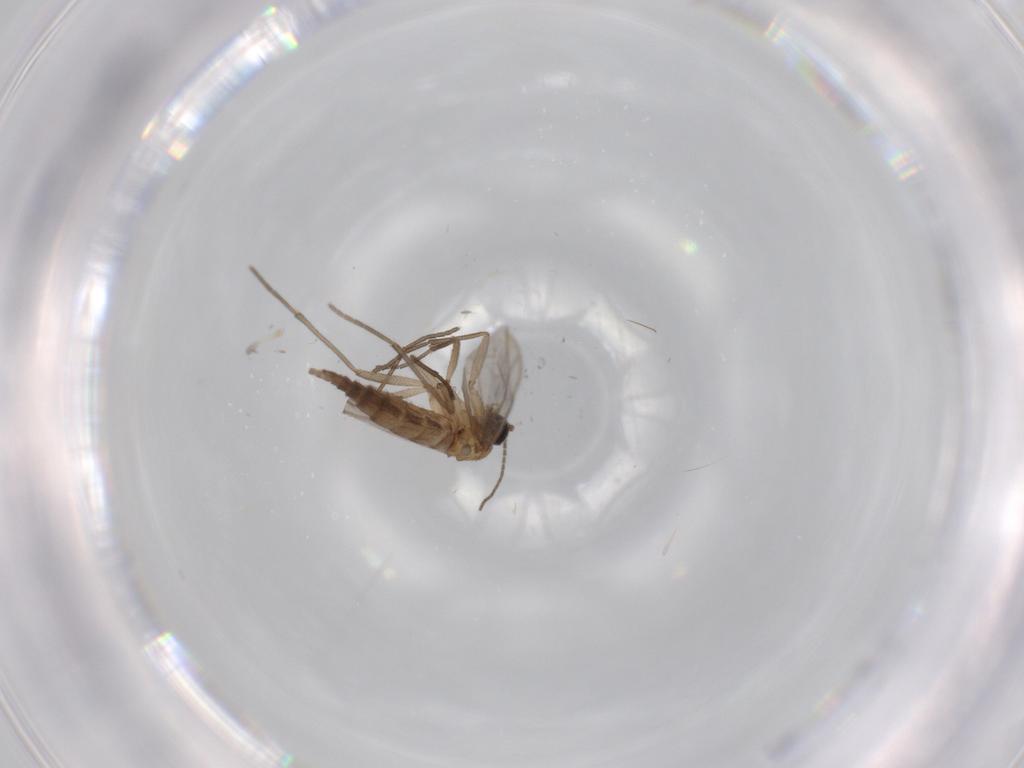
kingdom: Animalia
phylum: Arthropoda
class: Insecta
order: Diptera
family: Sciaridae
